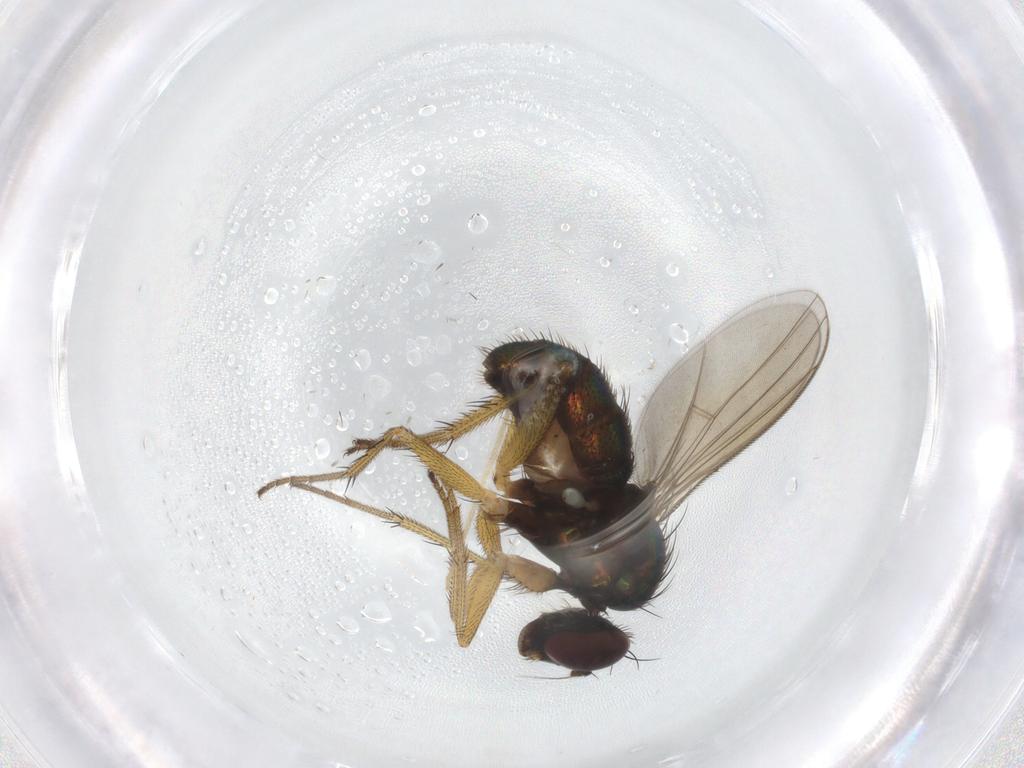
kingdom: Animalia
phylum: Arthropoda
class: Insecta
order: Diptera
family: Dolichopodidae
